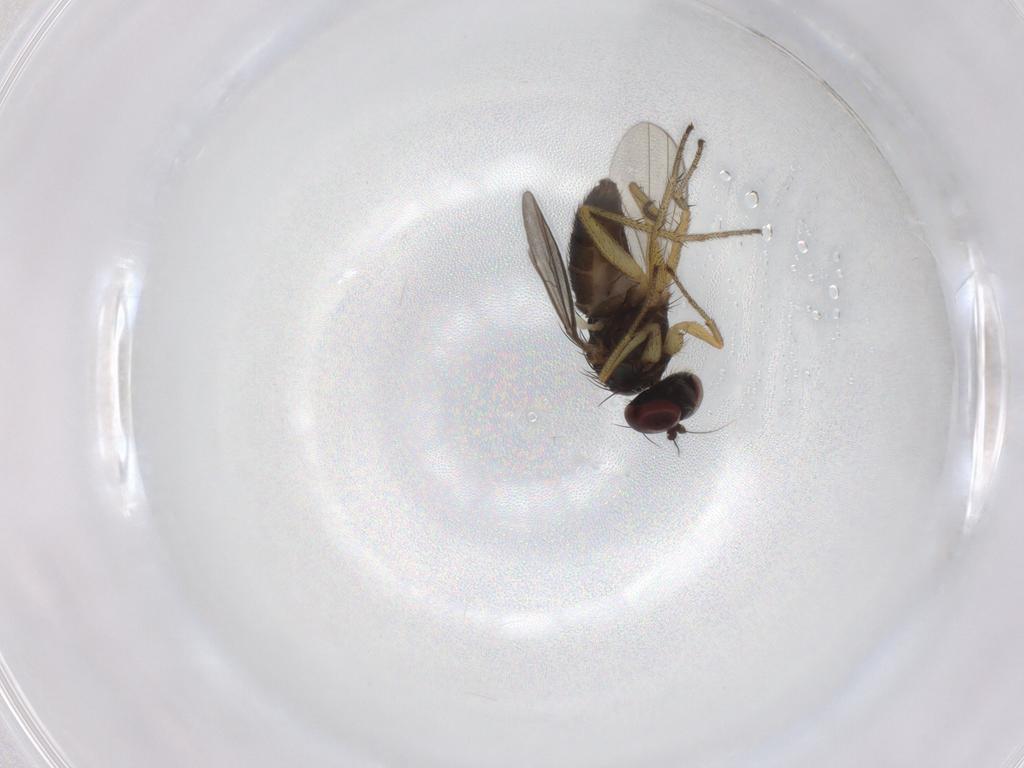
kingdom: Animalia
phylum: Arthropoda
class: Insecta
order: Diptera
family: Dolichopodidae
